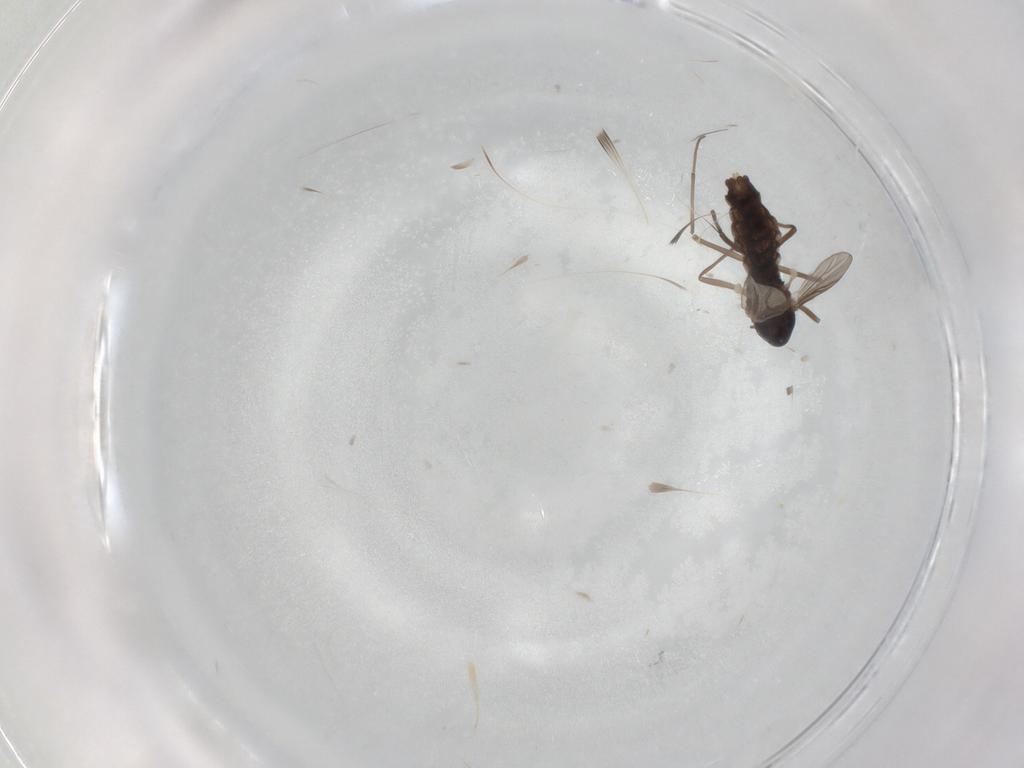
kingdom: Animalia
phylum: Arthropoda
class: Insecta
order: Diptera
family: Chironomidae
